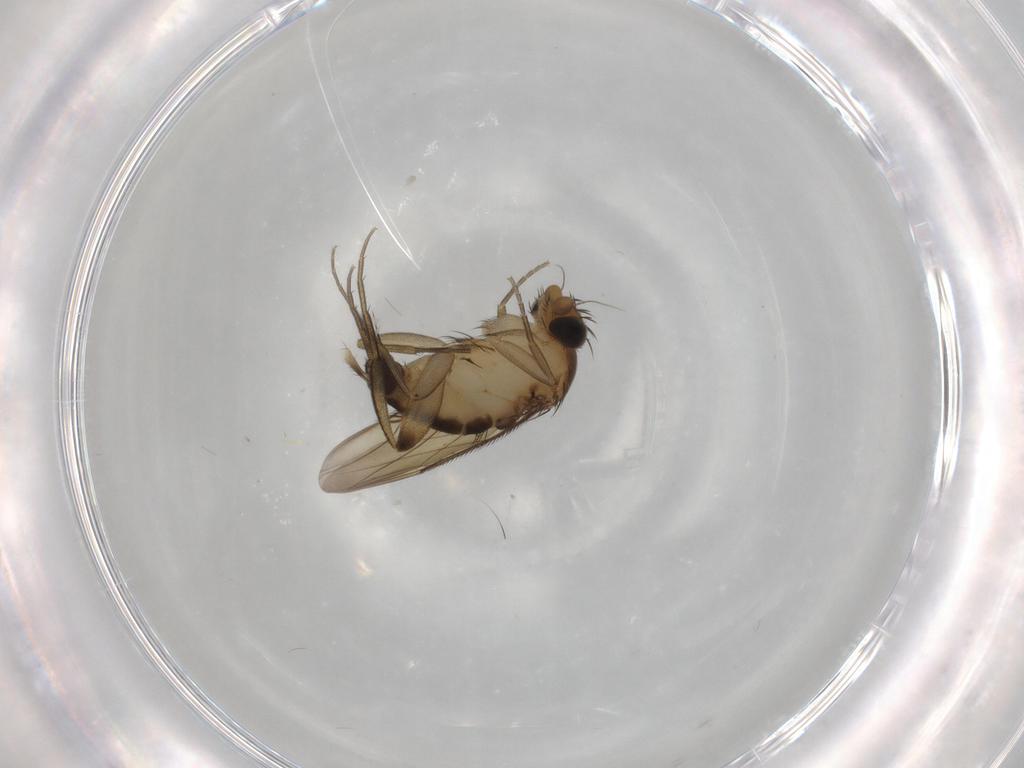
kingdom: Animalia
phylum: Arthropoda
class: Insecta
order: Diptera
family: Phoridae
